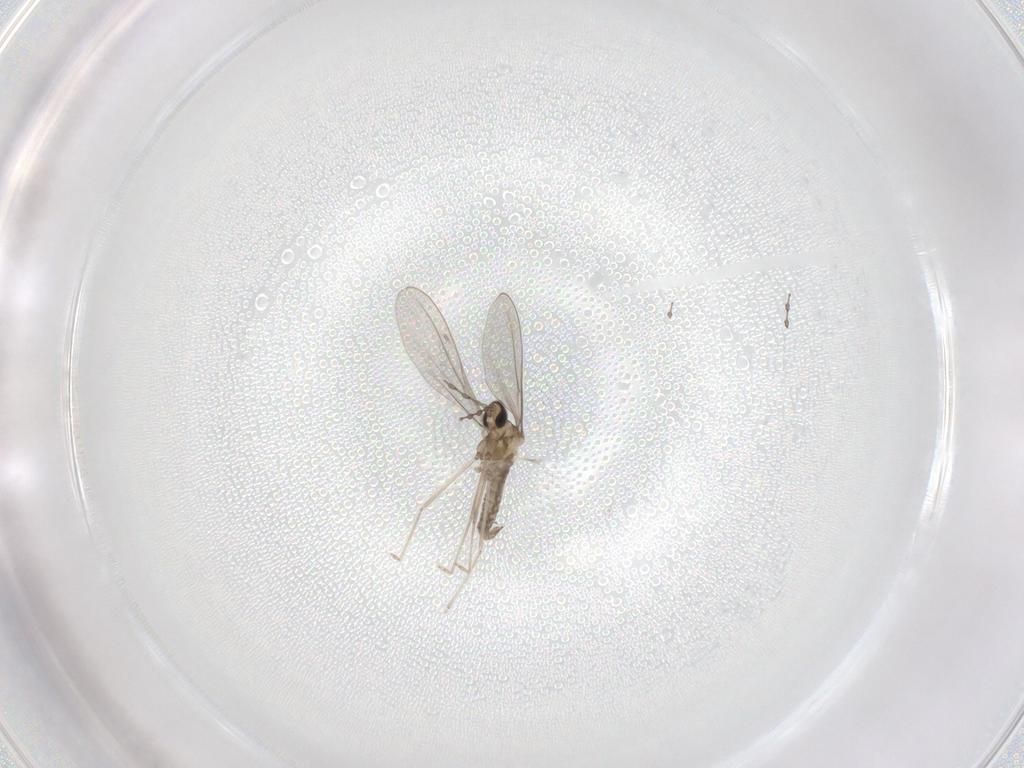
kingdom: Animalia
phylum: Arthropoda
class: Insecta
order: Diptera
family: Cecidomyiidae
